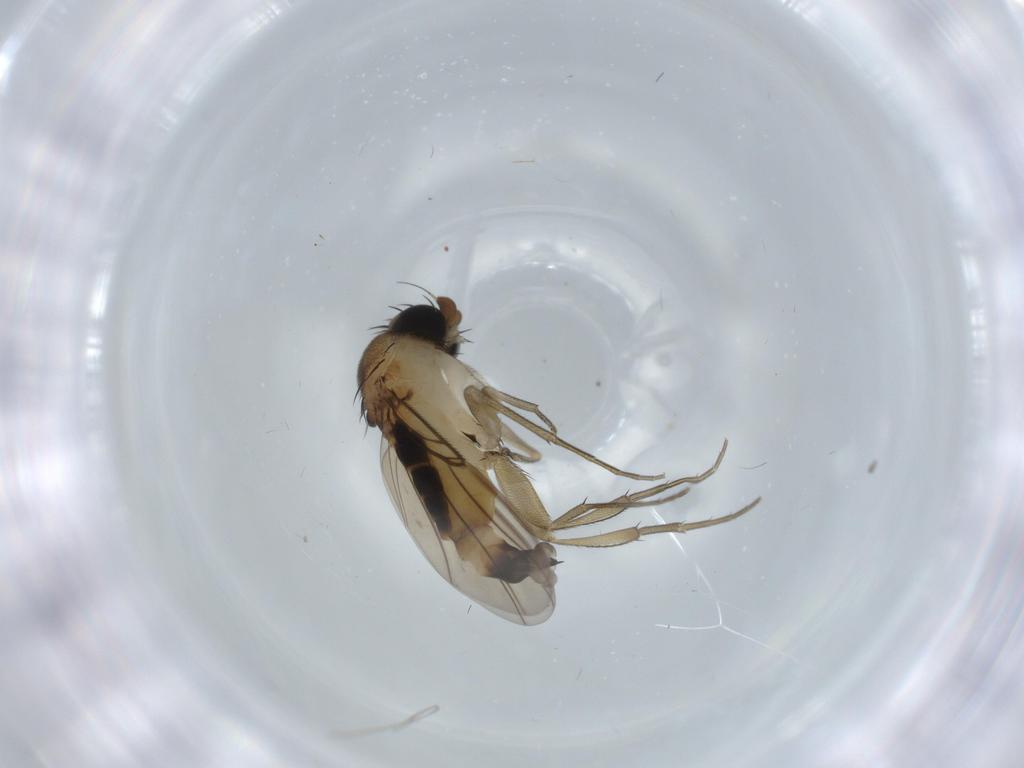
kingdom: Animalia
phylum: Arthropoda
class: Insecta
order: Diptera
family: Phoridae
